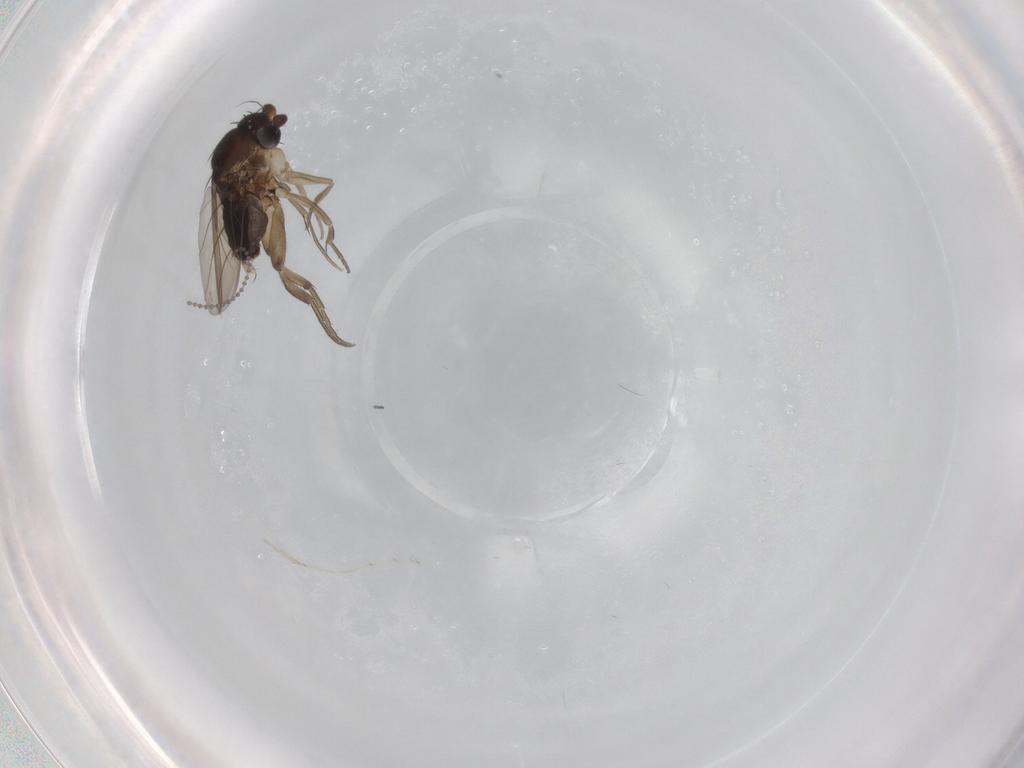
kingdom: Animalia
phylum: Arthropoda
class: Insecta
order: Diptera
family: Phoridae
